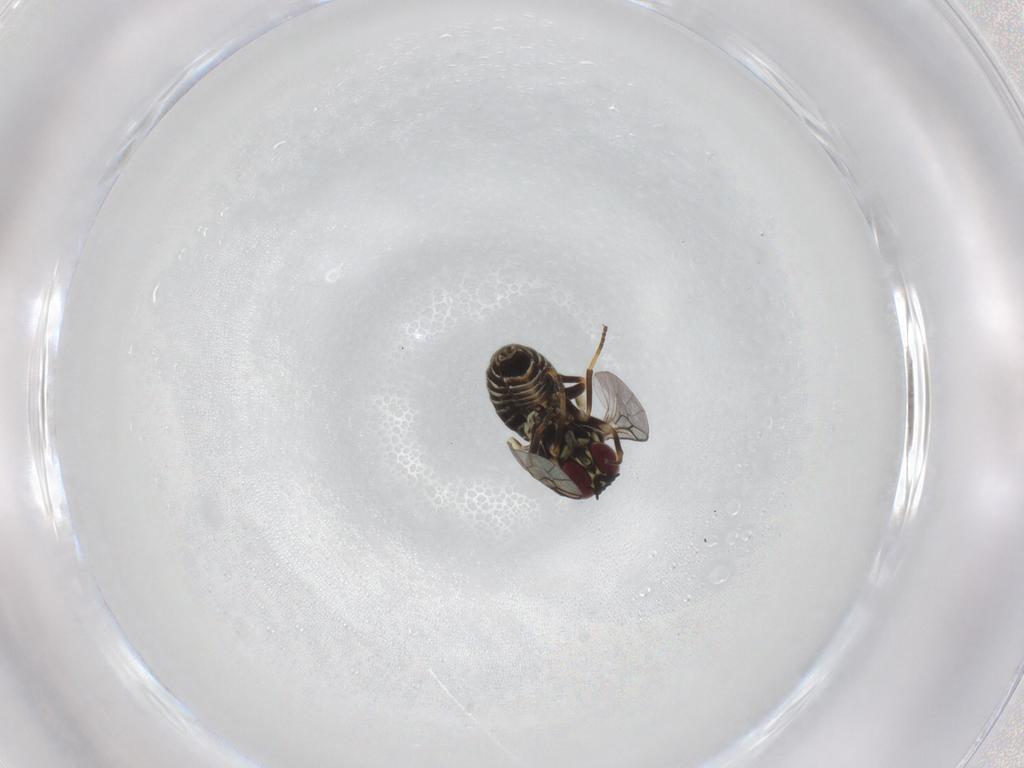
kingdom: Animalia
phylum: Arthropoda
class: Insecta
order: Diptera
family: Mythicomyiidae
